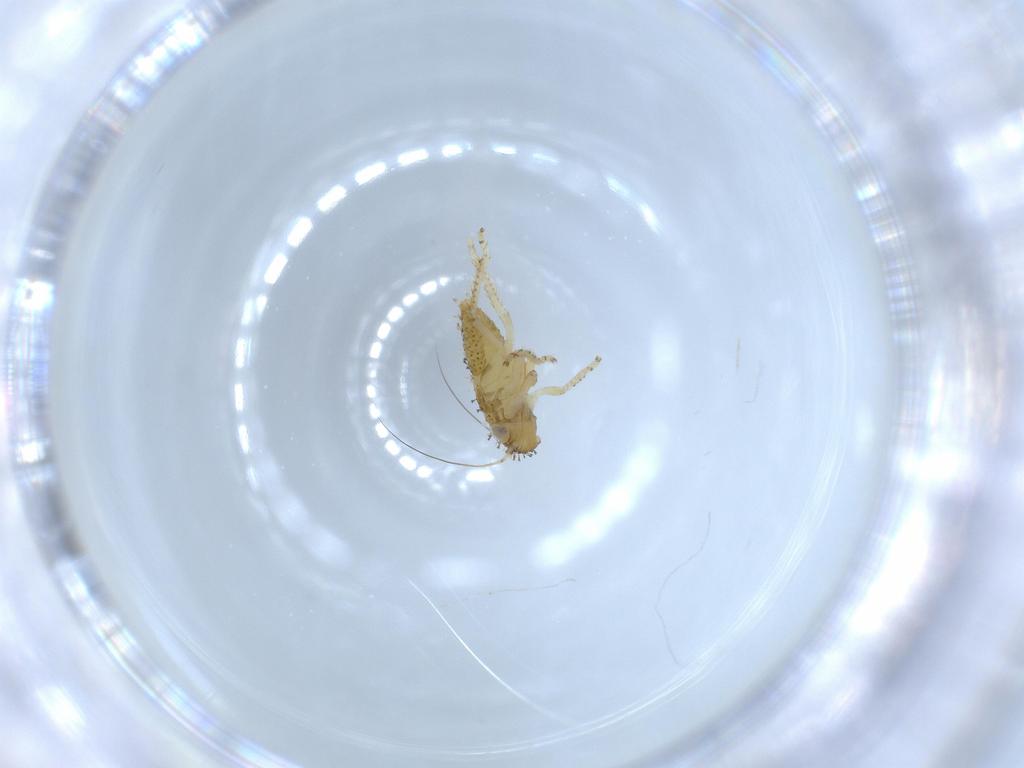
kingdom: Animalia
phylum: Arthropoda
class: Insecta
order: Hemiptera
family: Cicadellidae
